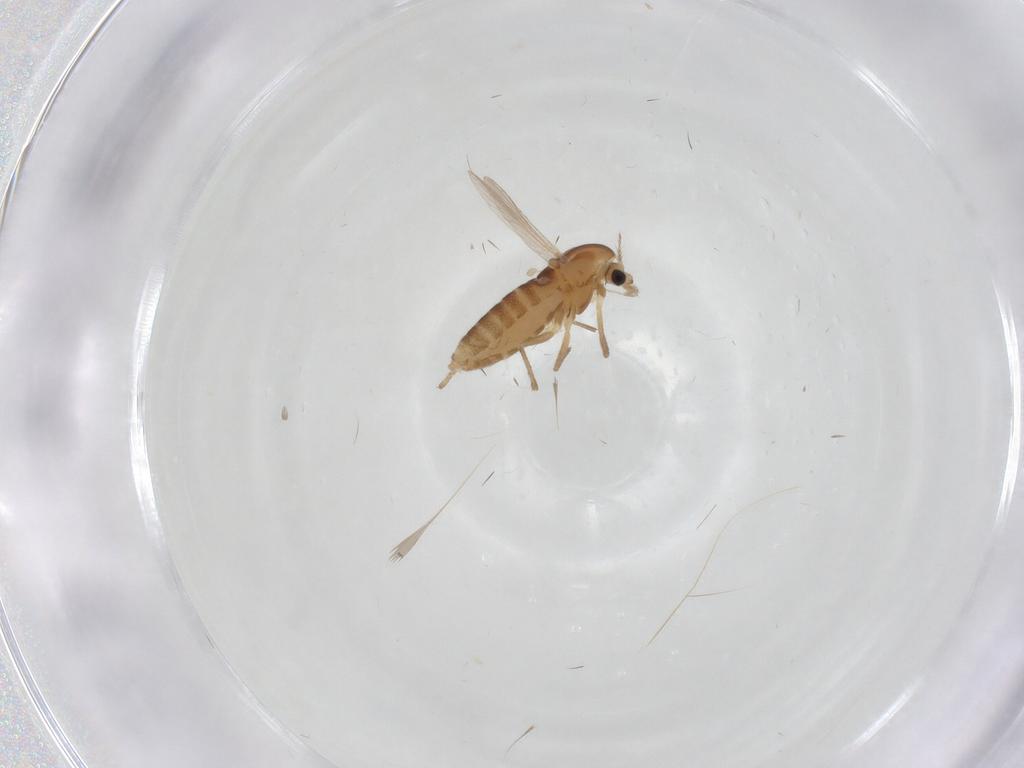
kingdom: Animalia
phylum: Arthropoda
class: Insecta
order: Diptera
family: Chironomidae
